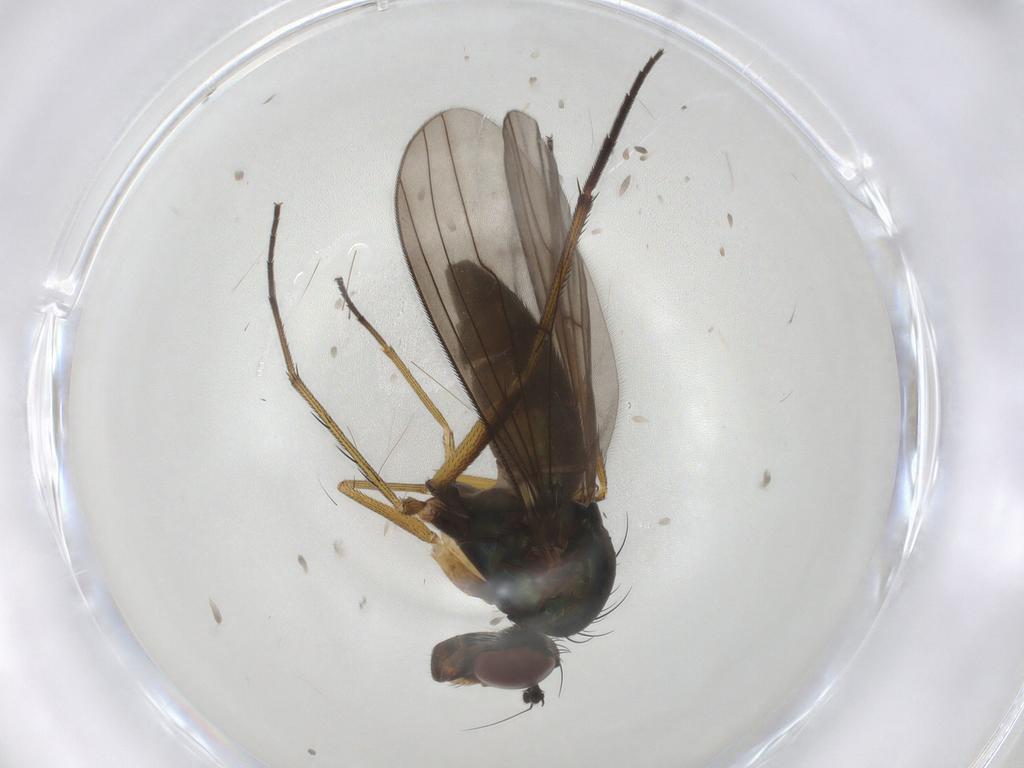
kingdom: Animalia
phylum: Arthropoda
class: Insecta
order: Diptera
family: Dolichopodidae
